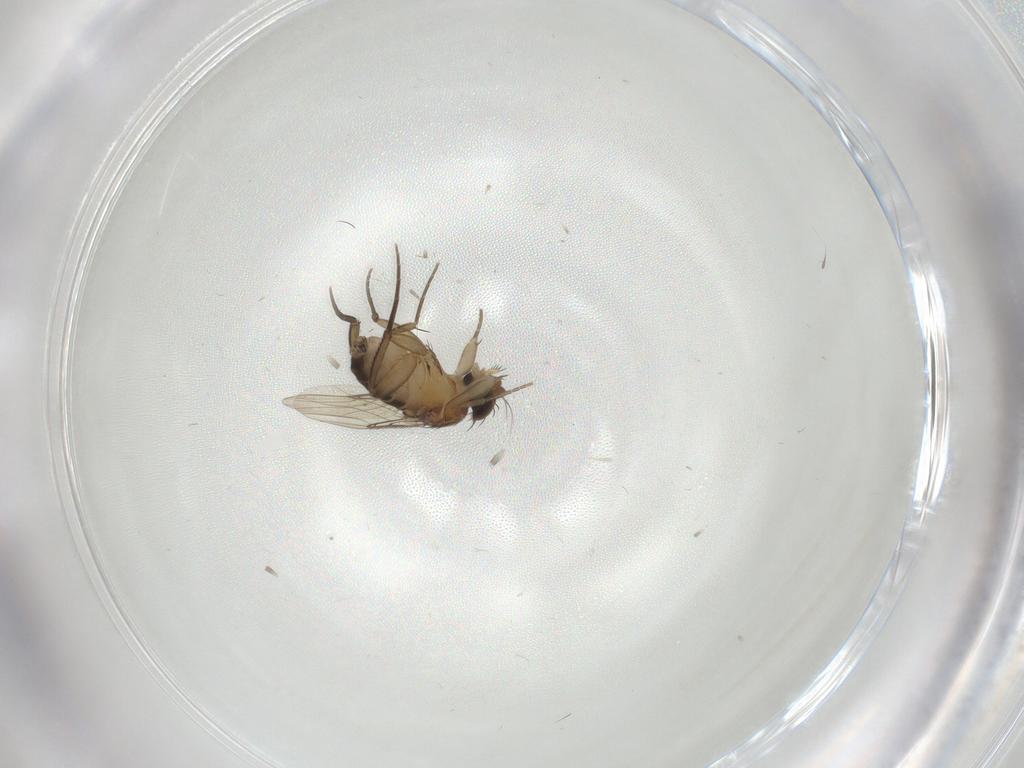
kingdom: Animalia
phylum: Arthropoda
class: Insecta
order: Diptera
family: Phoridae
